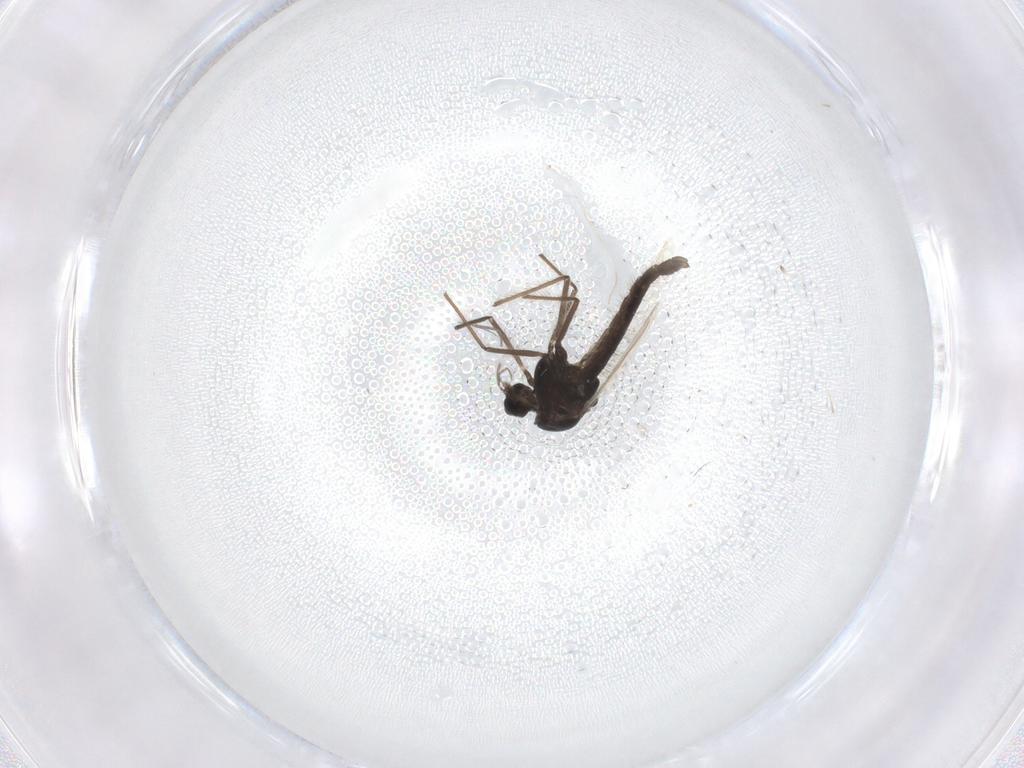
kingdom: Animalia
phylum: Arthropoda
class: Insecta
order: Diptera
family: Chironomidae
